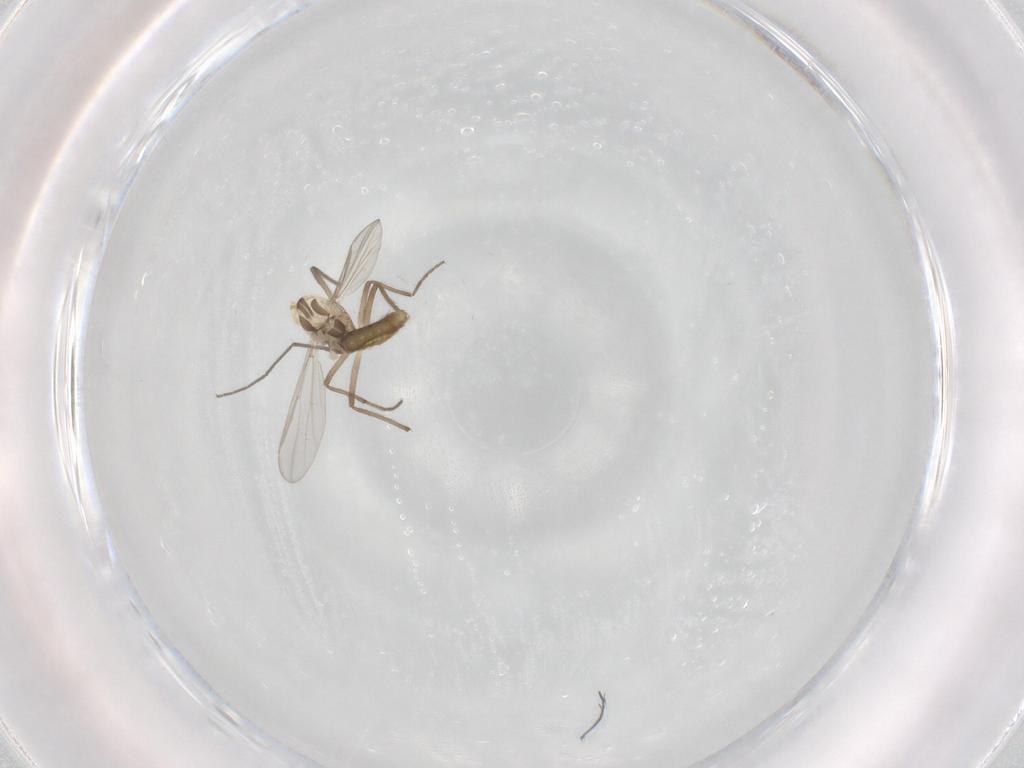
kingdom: Animalia
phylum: Arthropoda
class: Insecta
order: Diptera
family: Chironomidae
